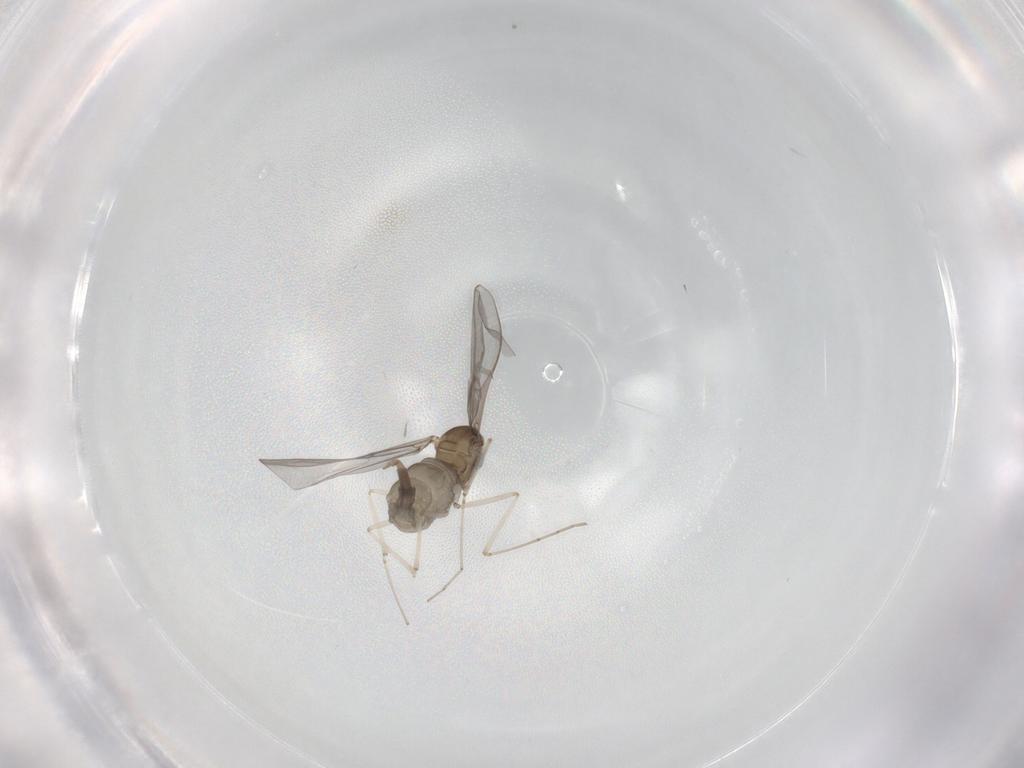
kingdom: Animalia
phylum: Arthropoda
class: Insecta
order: Diptera
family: Cecidomyiidae
